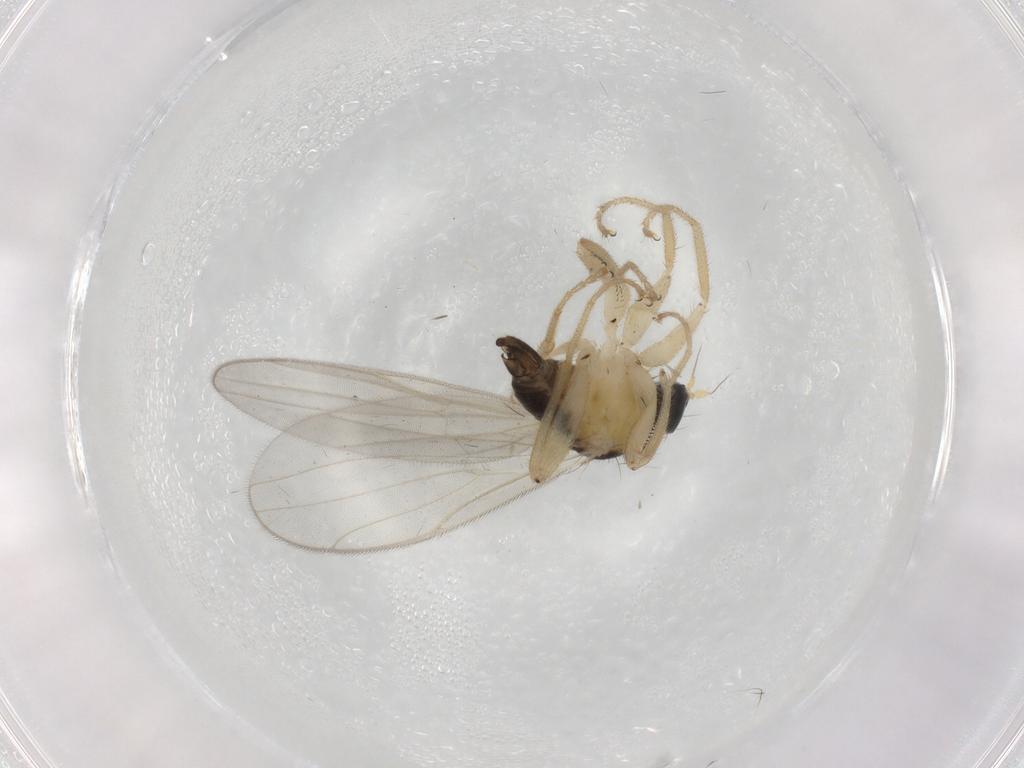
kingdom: Animalia
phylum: Arthropoda
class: Insecta
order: Diptera
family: Hybotidae
